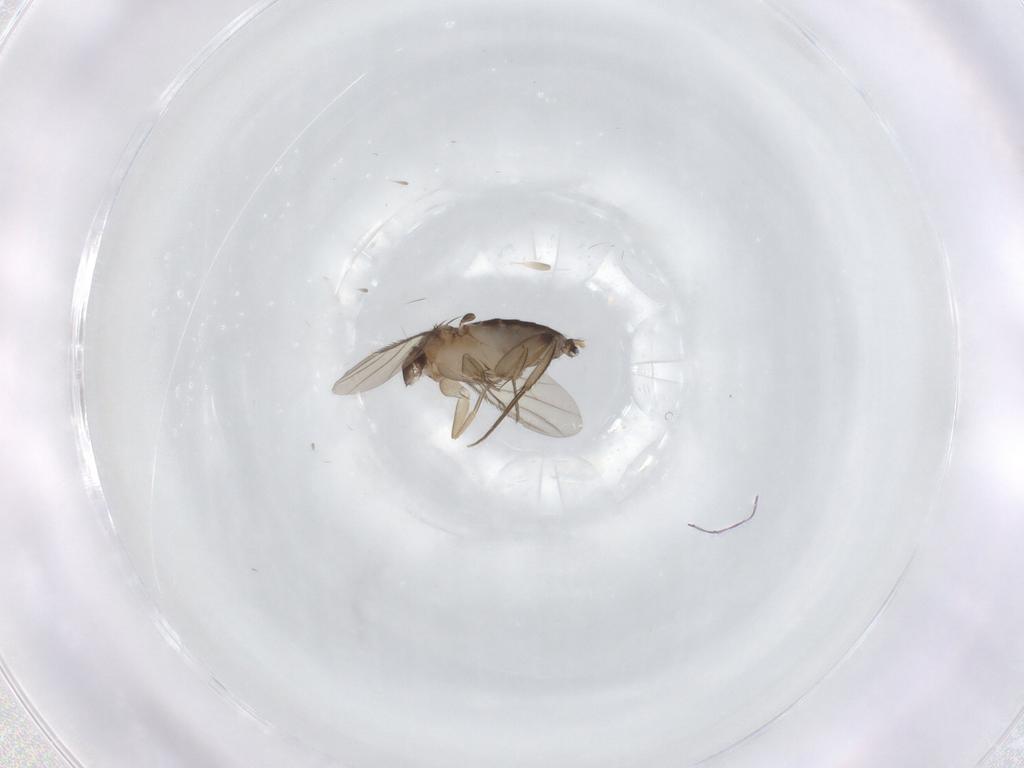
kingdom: Animalia
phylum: Arthropoda
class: Insecta
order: Diptera
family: Phoridae
